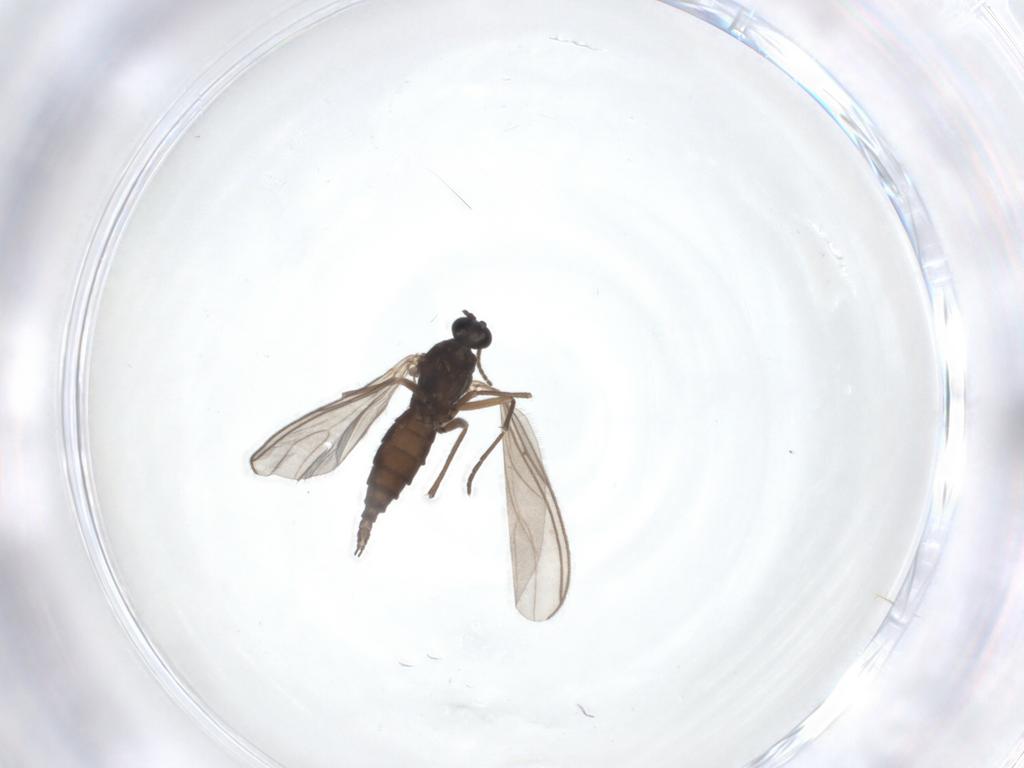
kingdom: Animalia
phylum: Arthropoda
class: Insecta
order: Diptera
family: Sciaridae
